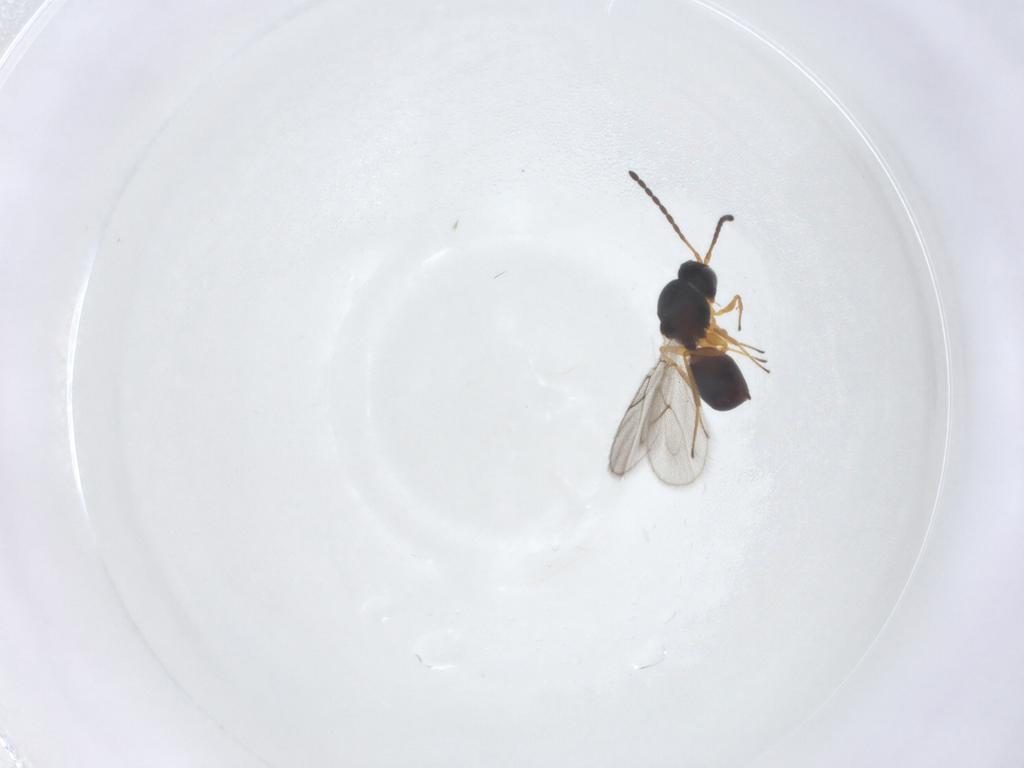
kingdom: Animalia
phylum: Arthropoda
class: Insecta
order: Hymenoptera
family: Figitidae
